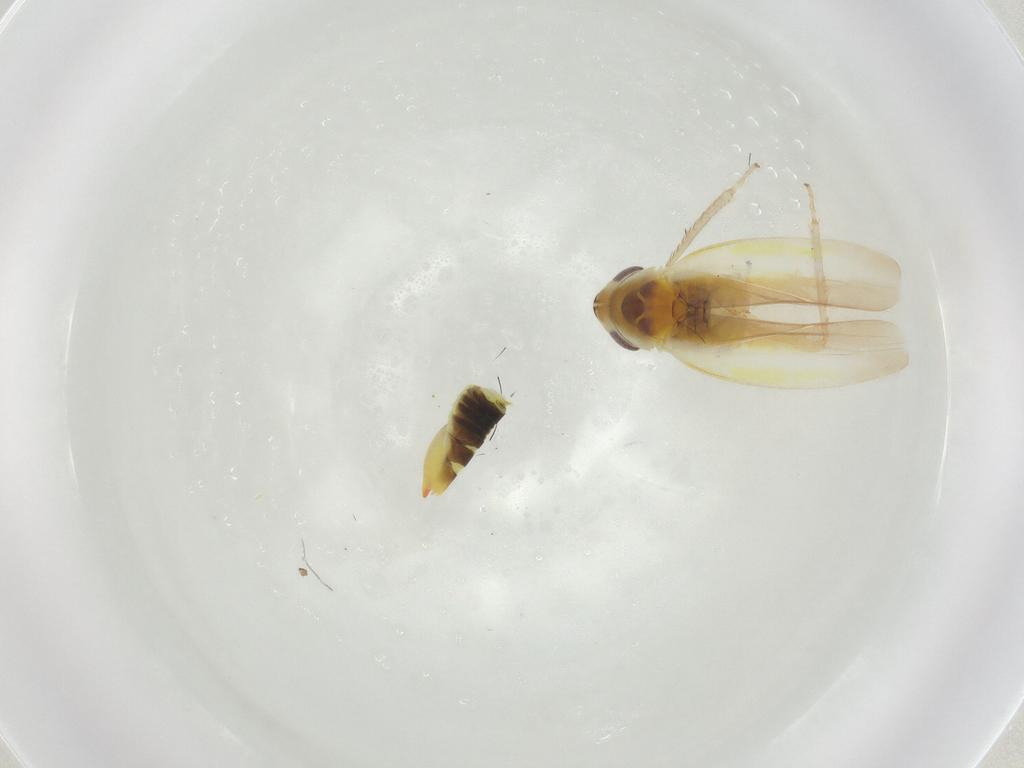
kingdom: Animalia
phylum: Arthropoda
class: Insecta
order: Hemiptera
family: Cicadellidae
